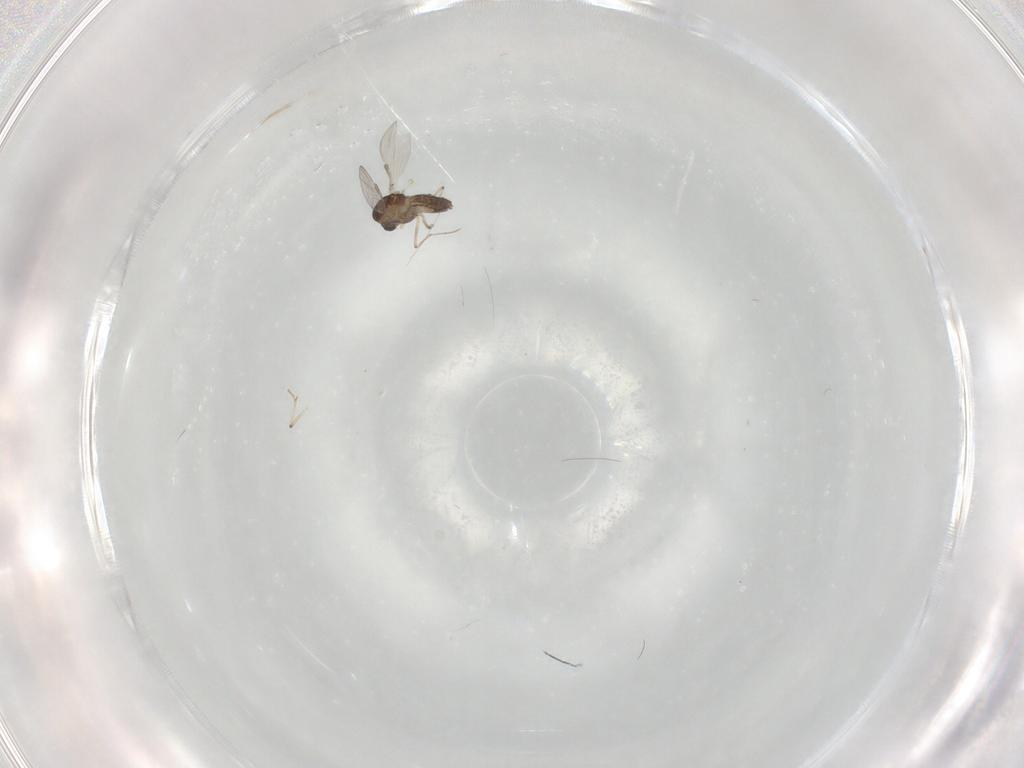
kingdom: Animalia
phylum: Arthropoda
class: Insecta
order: Diptera
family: Chironomidae
